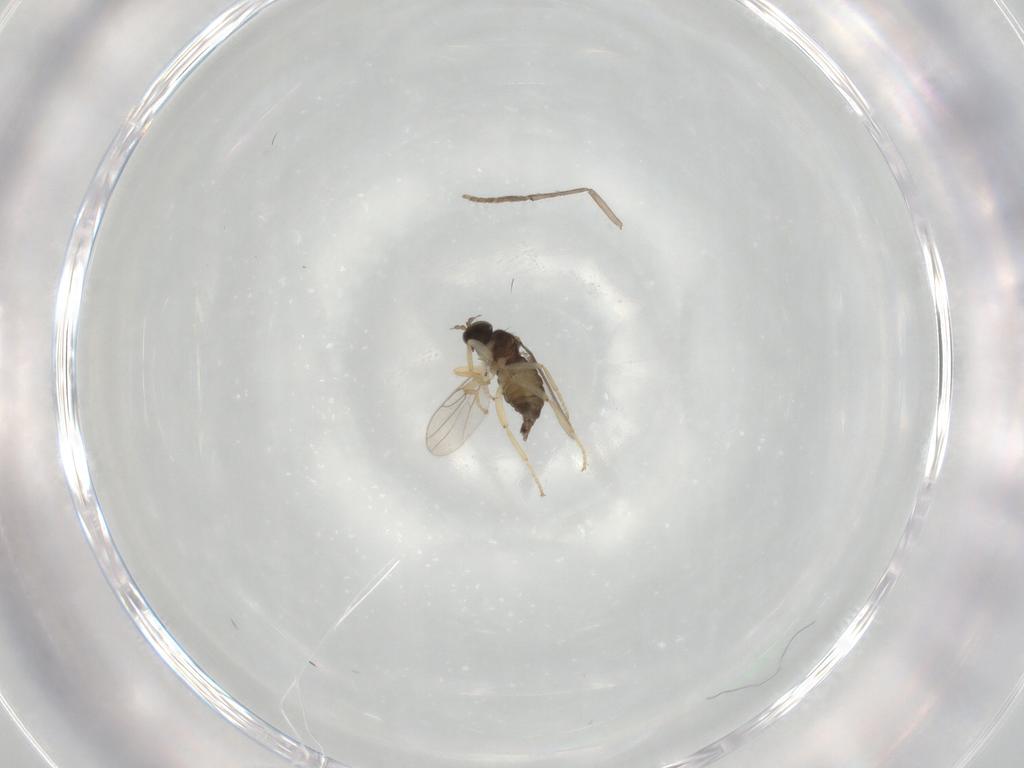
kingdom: Animalia
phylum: Arthropoda
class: Insecta
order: Diptera
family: Hybotidae
